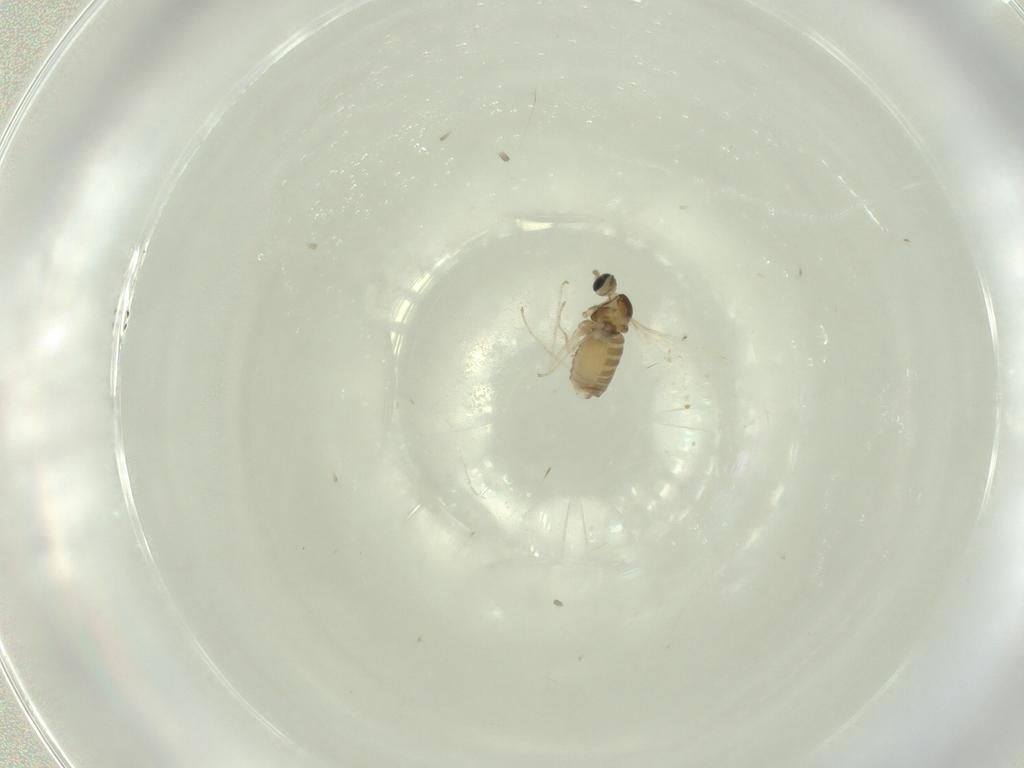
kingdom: Animalia
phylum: Arthropoda
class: Insecta
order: Diptera
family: Cecidomyiidae
